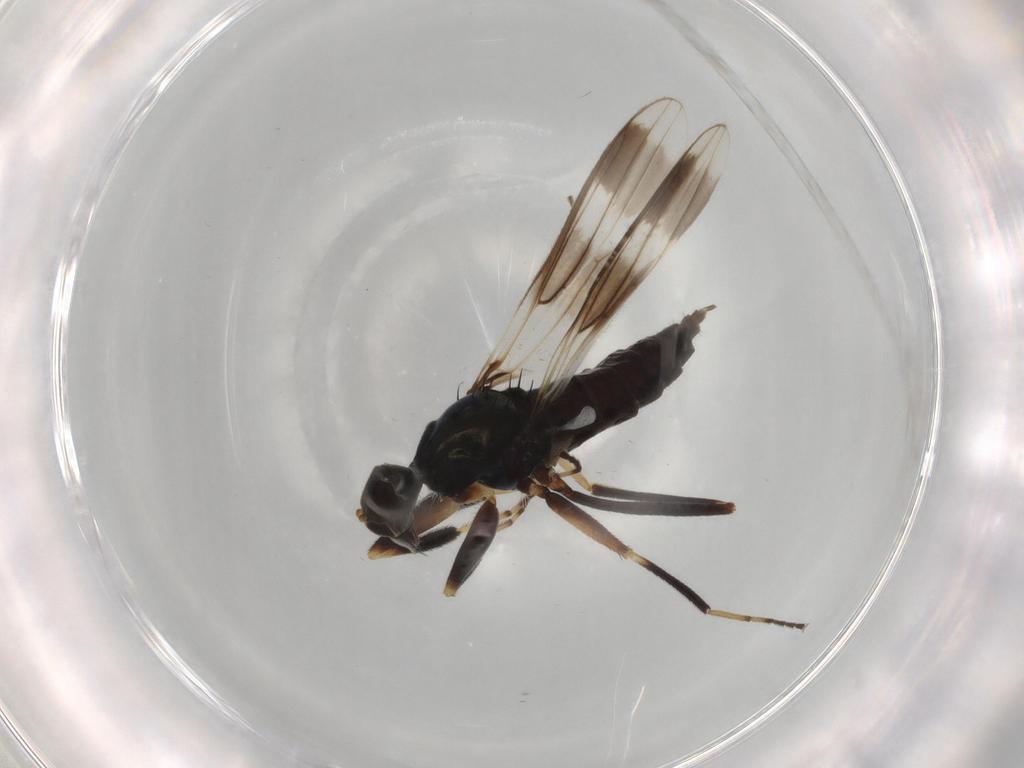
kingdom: Animalia
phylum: Arthropoda
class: Insecta
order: Diptera
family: Hybotidae
